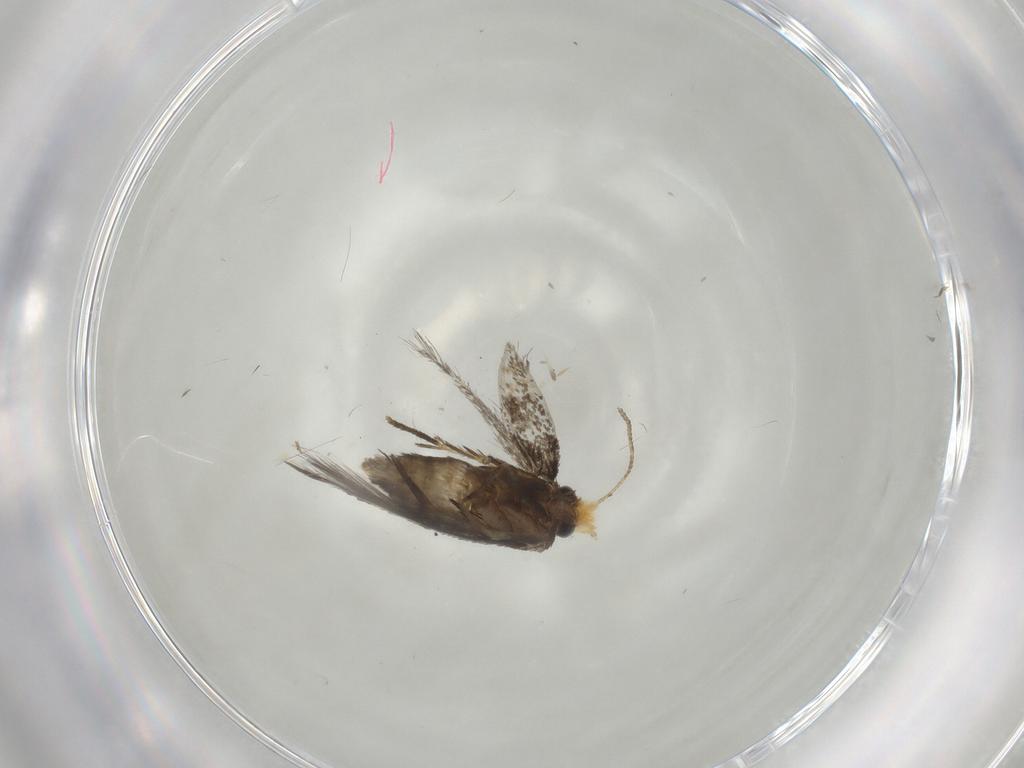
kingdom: Animalia
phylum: Arthropoda
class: Insecta
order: Lepidoptera
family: Nepticulidae
